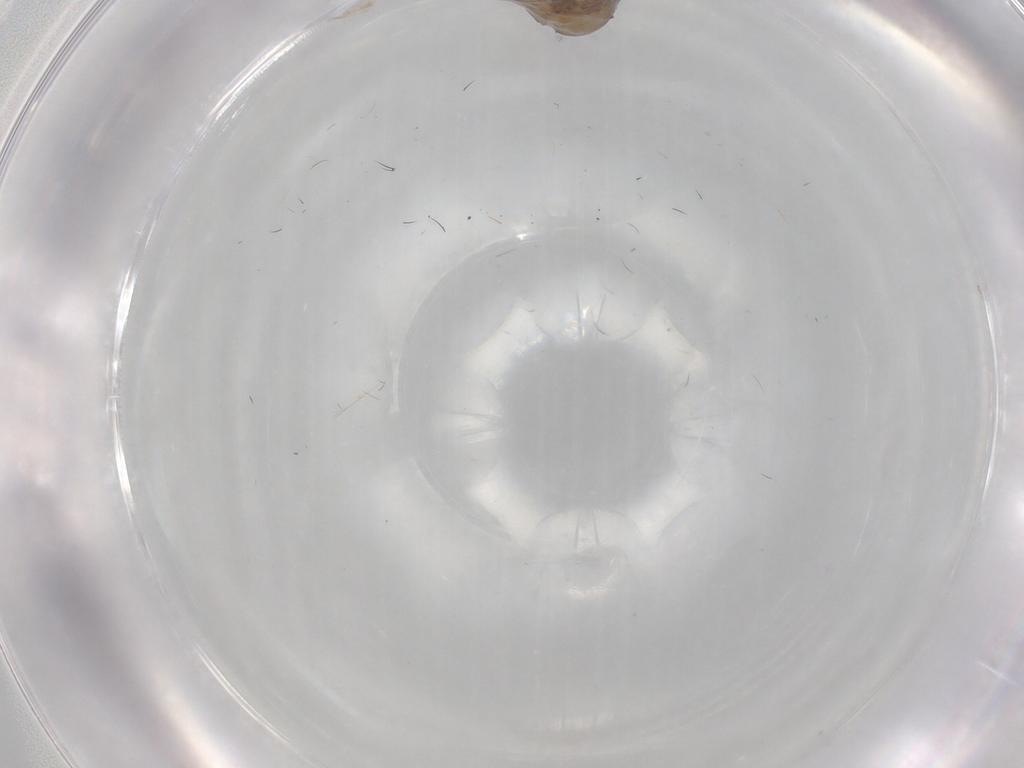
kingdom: Animalia
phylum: Arthropoda
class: Insecta
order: Lepidoptera
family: Psychidae
